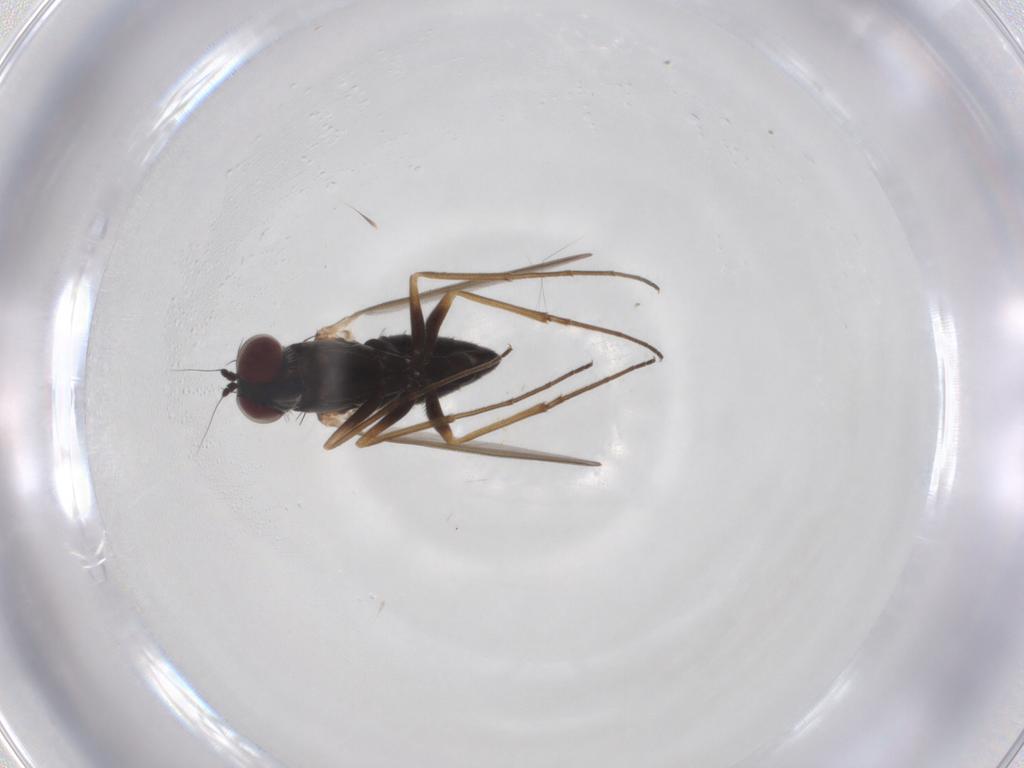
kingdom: Animalia
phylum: Arthropoda
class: Insecta
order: Diptera
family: Dolichopodidae
